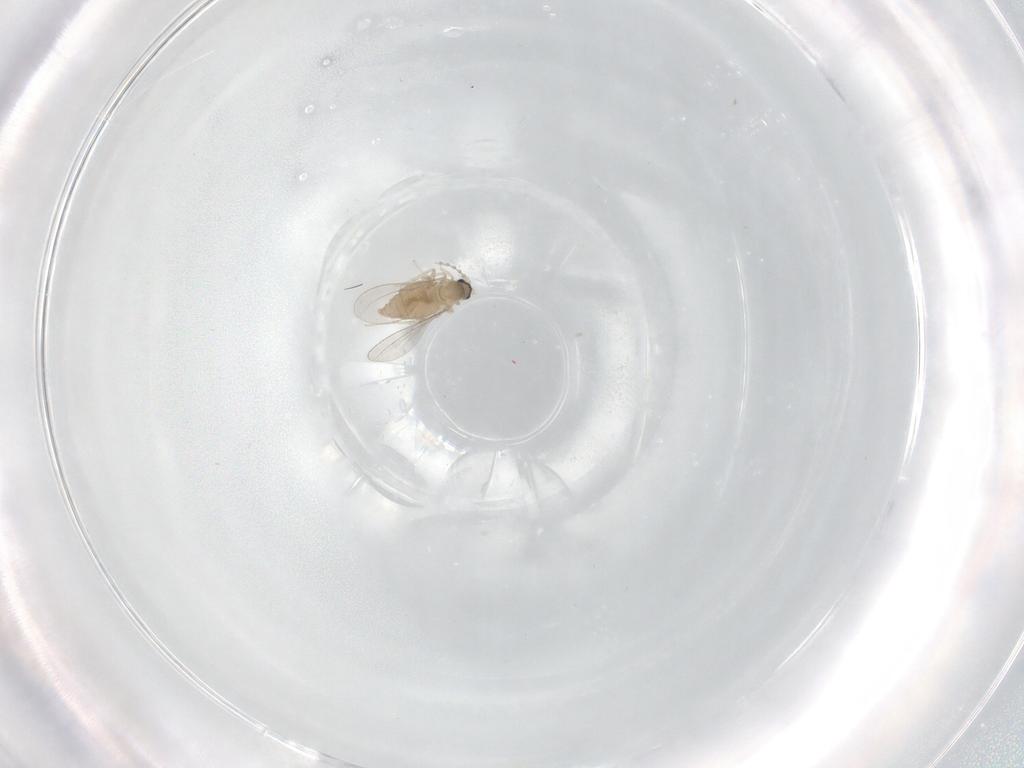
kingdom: Animalia
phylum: Arthropoda
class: Insecta
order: Diptera
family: Cecidomyiidae
